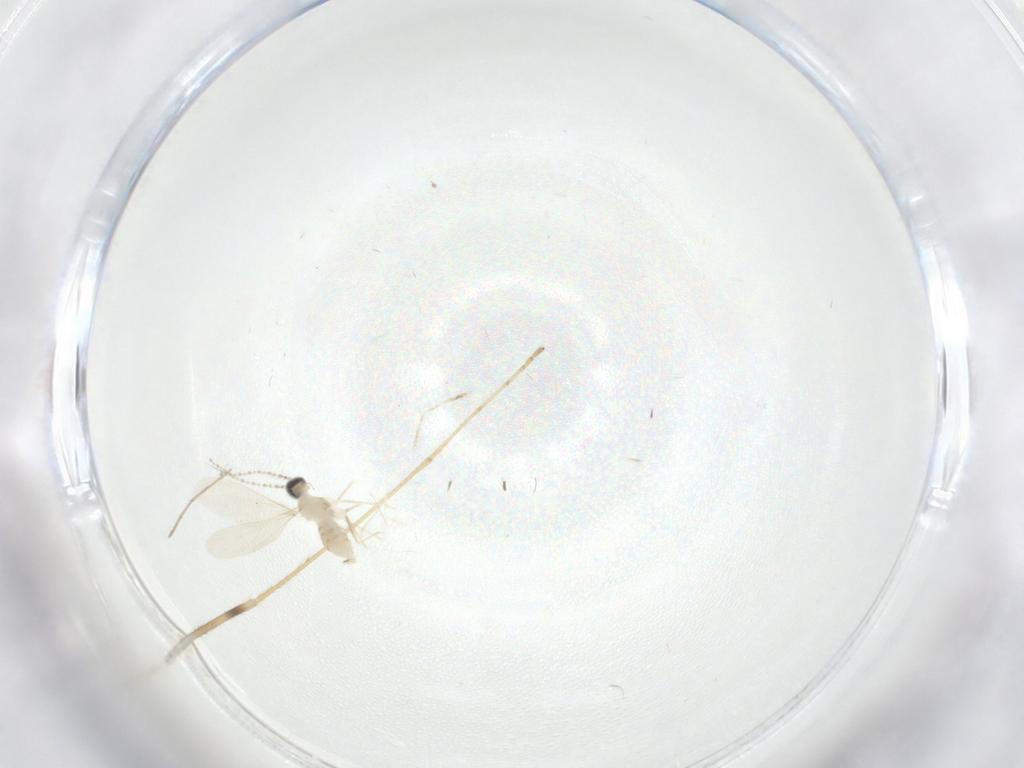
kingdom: Animalia
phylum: Arthropoda
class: Insecta
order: Diptera
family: Cecidomyiidae
